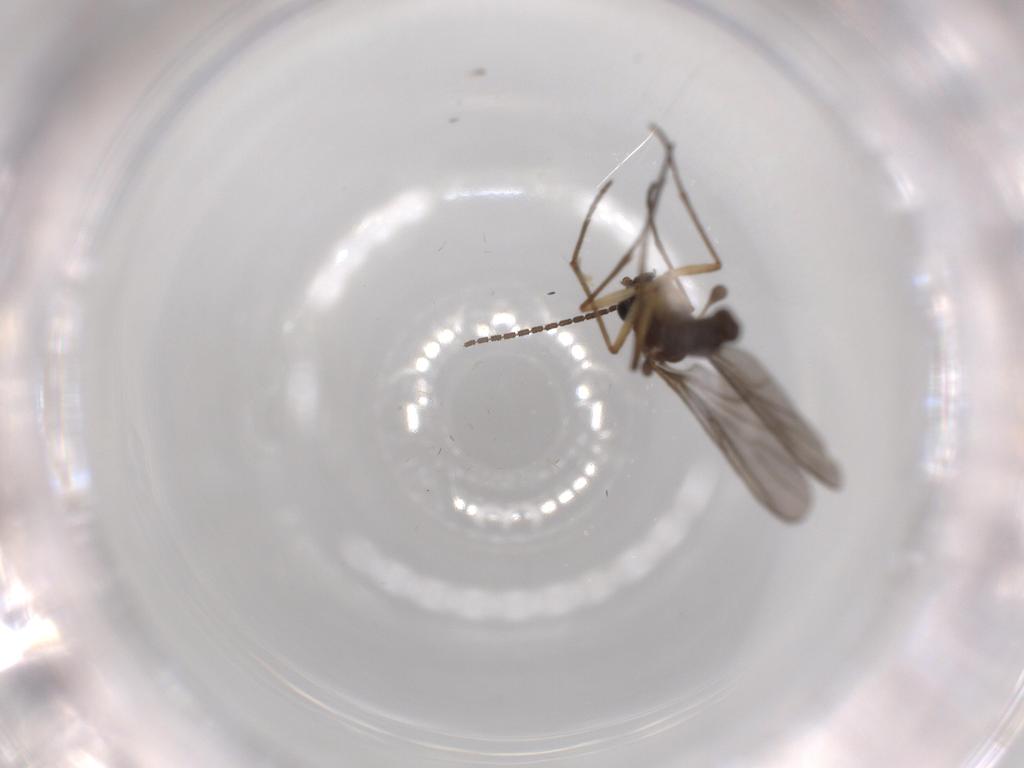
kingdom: Animalia
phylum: Arthropoda
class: Insecta
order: Diptera
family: Sciaridae
